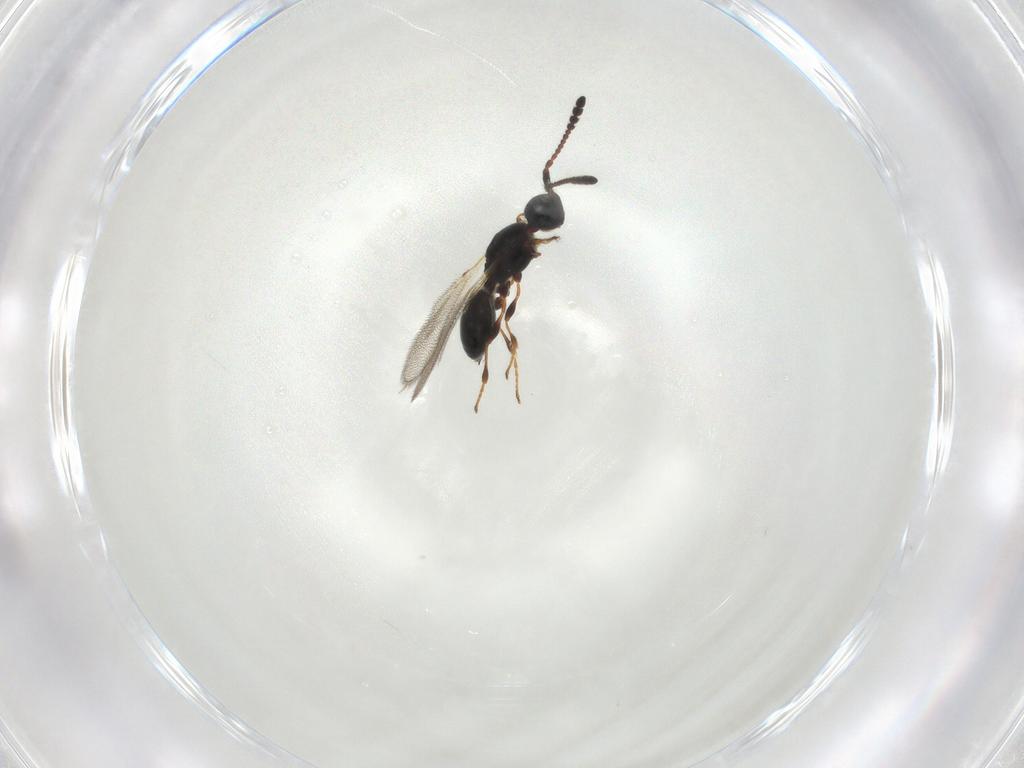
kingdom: Animalia
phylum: Arthropoda
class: Insecta
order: Hymenoptera
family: Diapriidae
